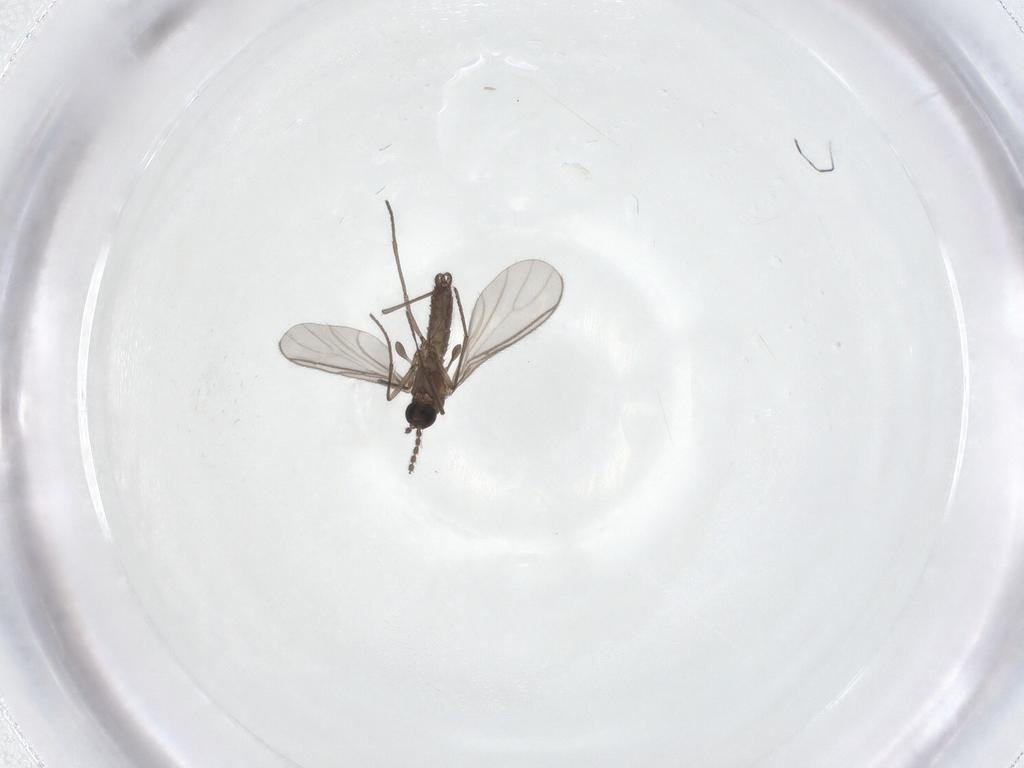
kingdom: Animalia
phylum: Arthropoda
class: Insecta
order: Diptera
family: Sciaridae
